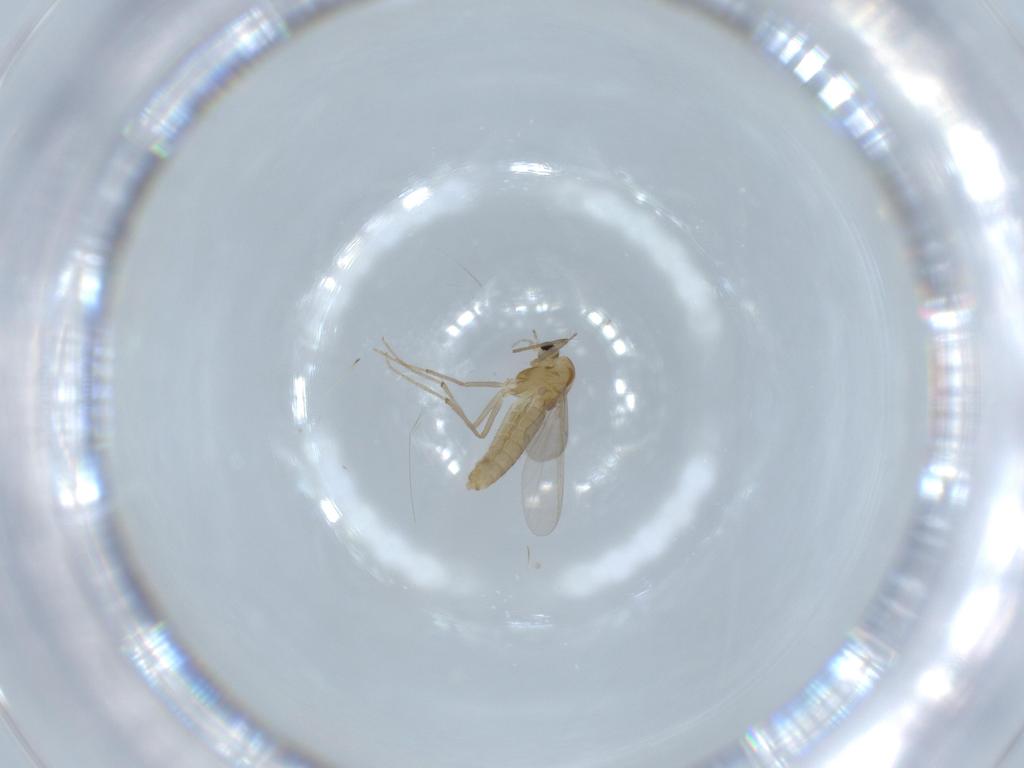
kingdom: Animalia
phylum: Arthropoda
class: Insecta
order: Diptera
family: Chironomidae
